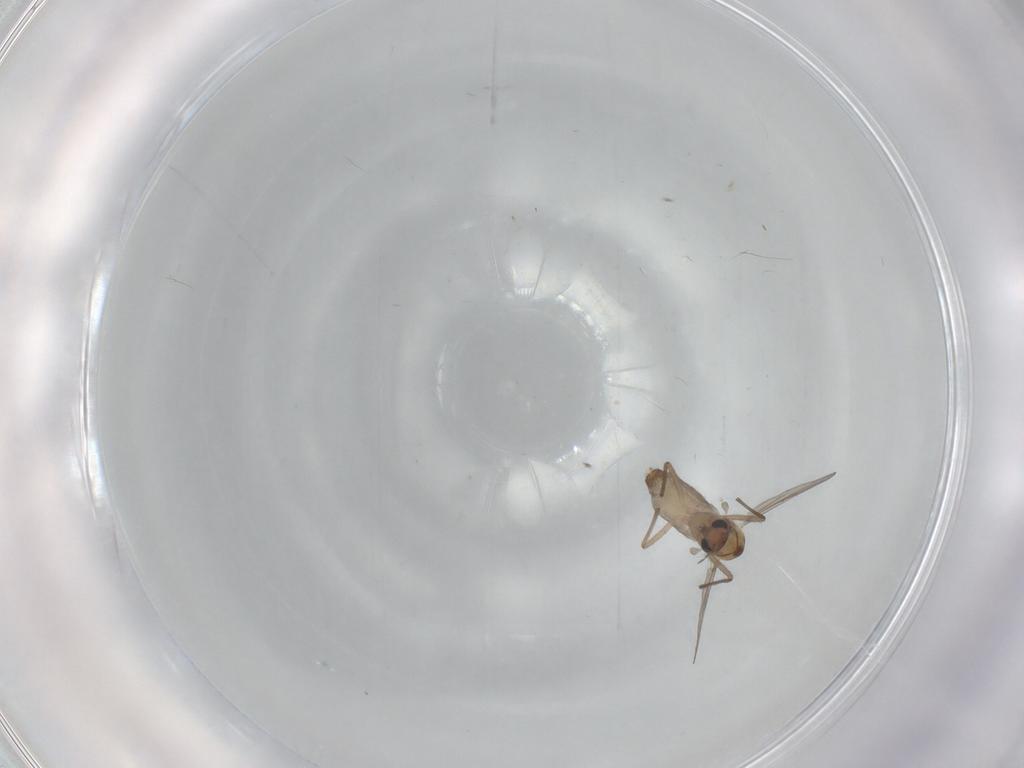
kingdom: Animalia
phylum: Arthropoda
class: Insecta
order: Diptera
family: Chironomidae
